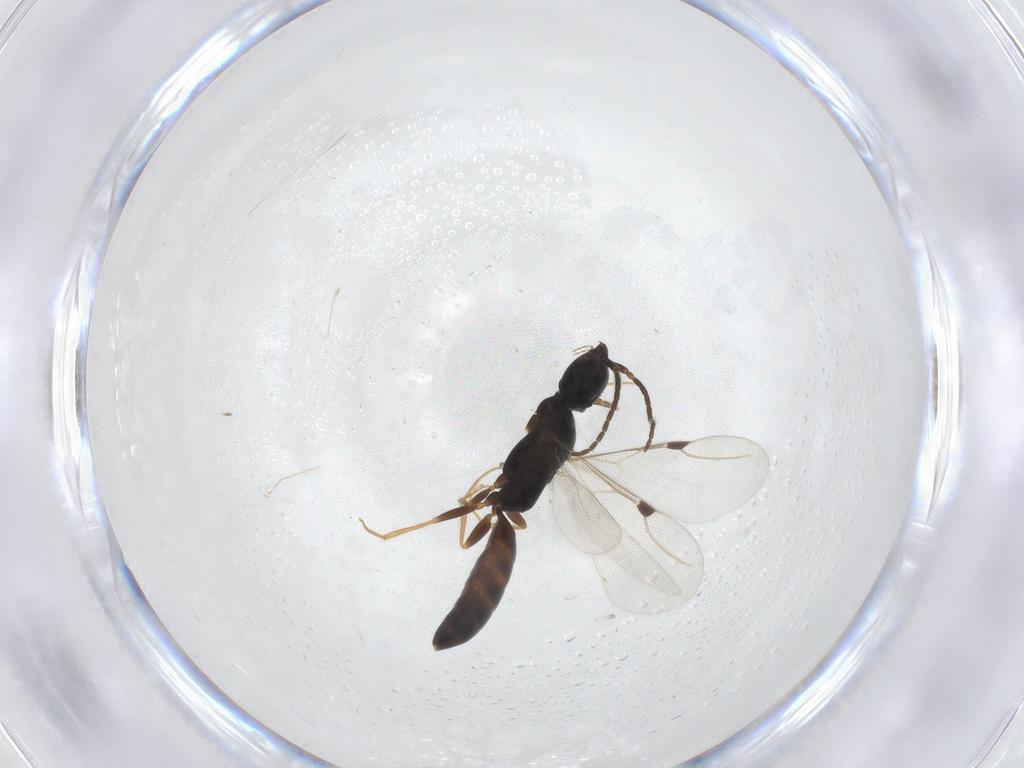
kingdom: Animalia
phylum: Arthropoda
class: Insecta
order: Hymenoptera
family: Bethylidae
